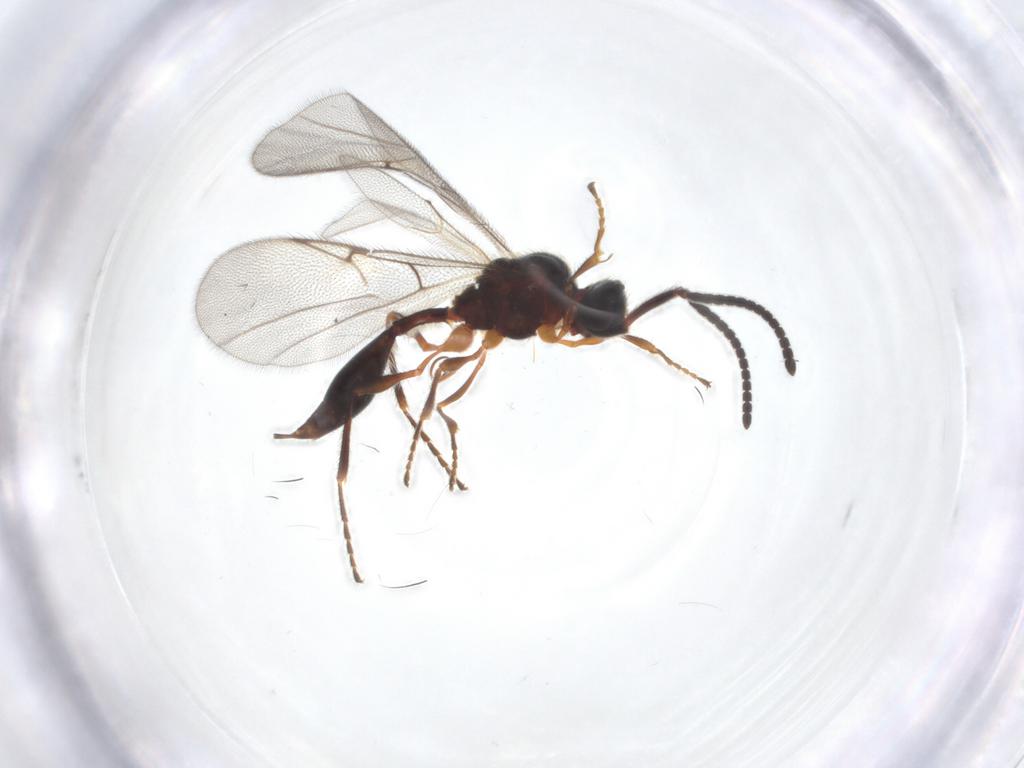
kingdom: Animalia
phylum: Arthropoda
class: Insecta
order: Hymenoptera
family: Diapriidae
